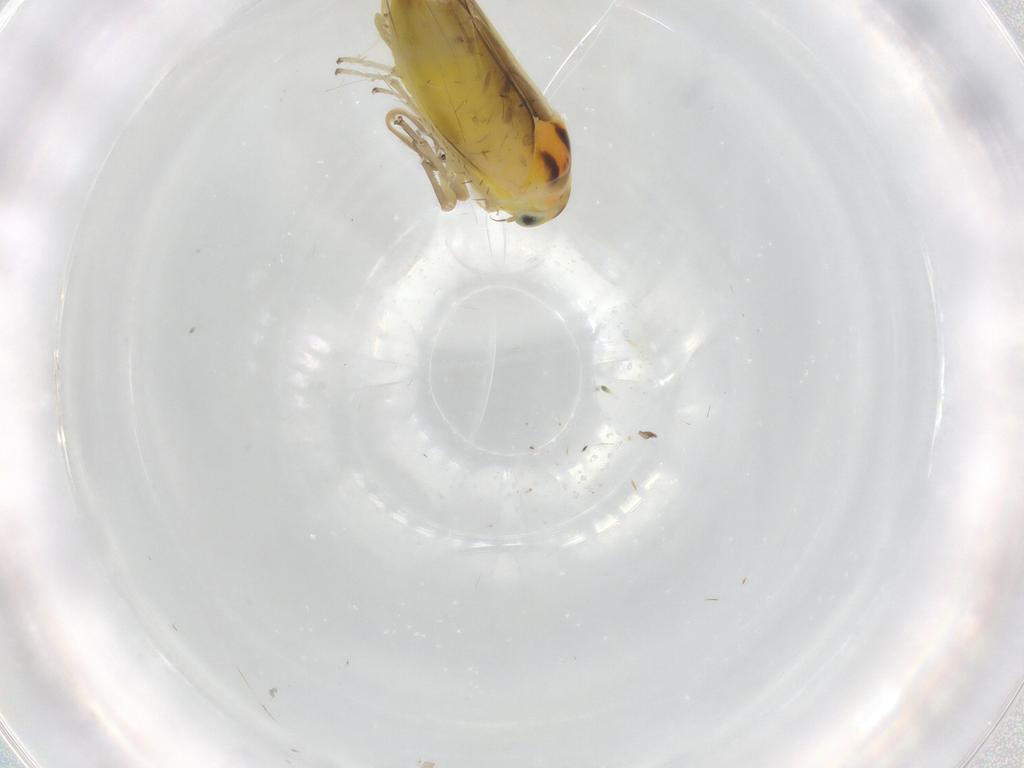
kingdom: Animalia
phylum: Arthropoda
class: Insecta
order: Hemiptera
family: Cicadellidae
